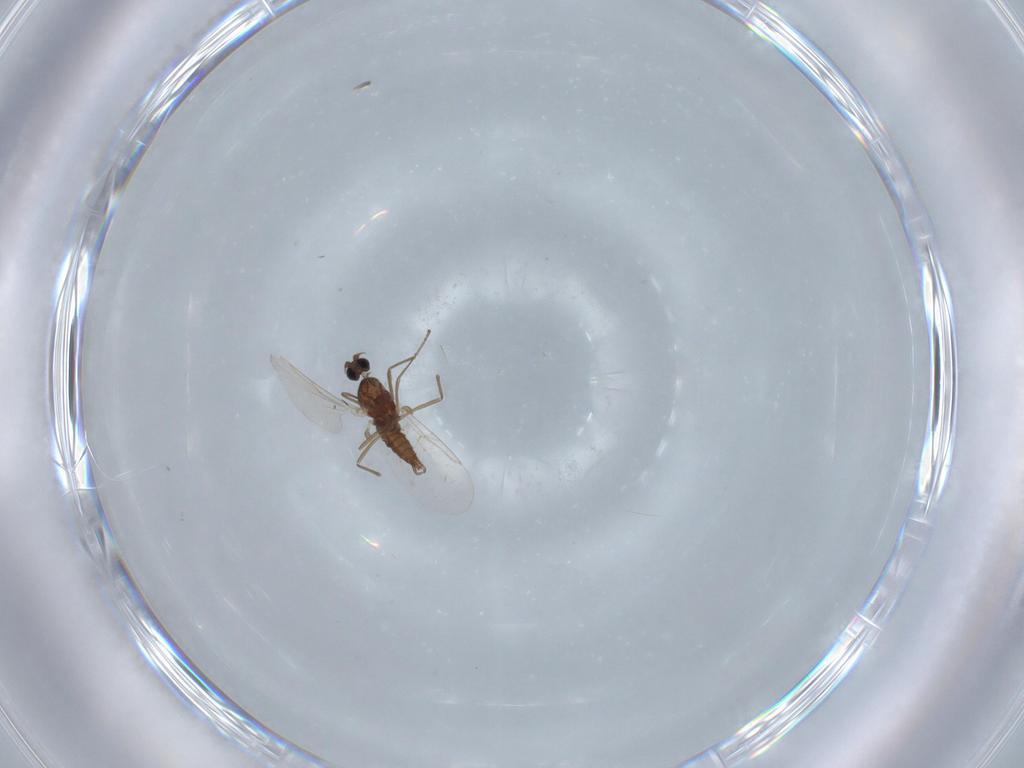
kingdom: Animalia
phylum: Arthropoda
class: Insecta
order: Diptera
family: Cecidomyiidae
